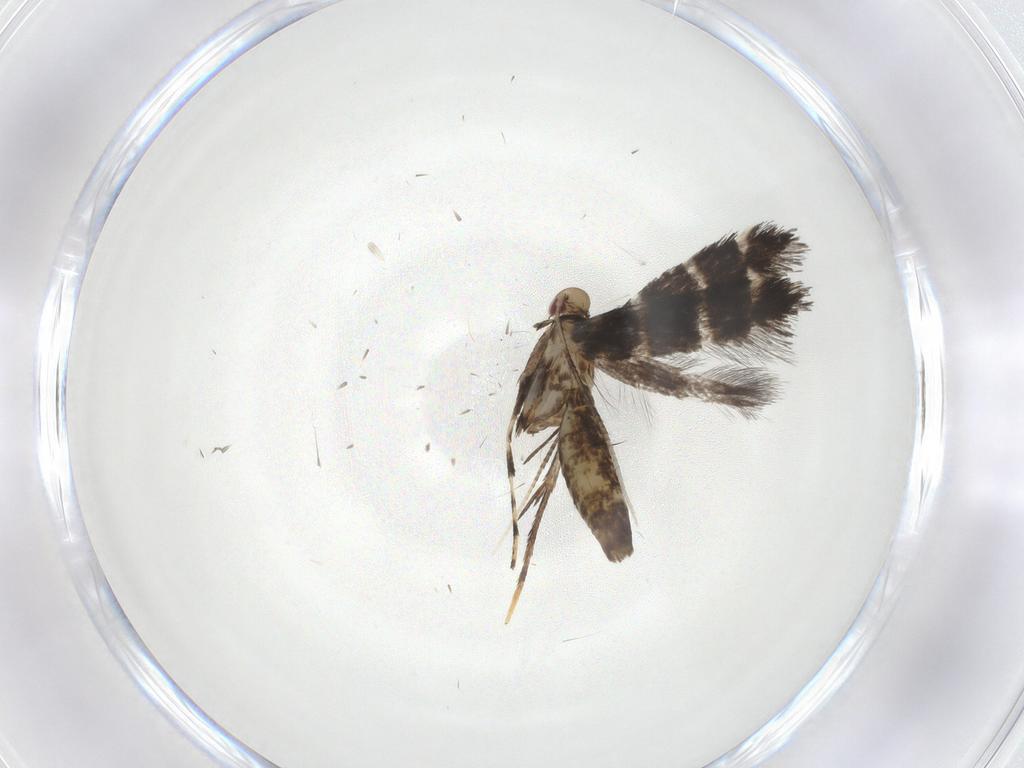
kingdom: Animalia
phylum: Arthropoda
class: Insecta
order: Lepidoptera
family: Gracillariidae
